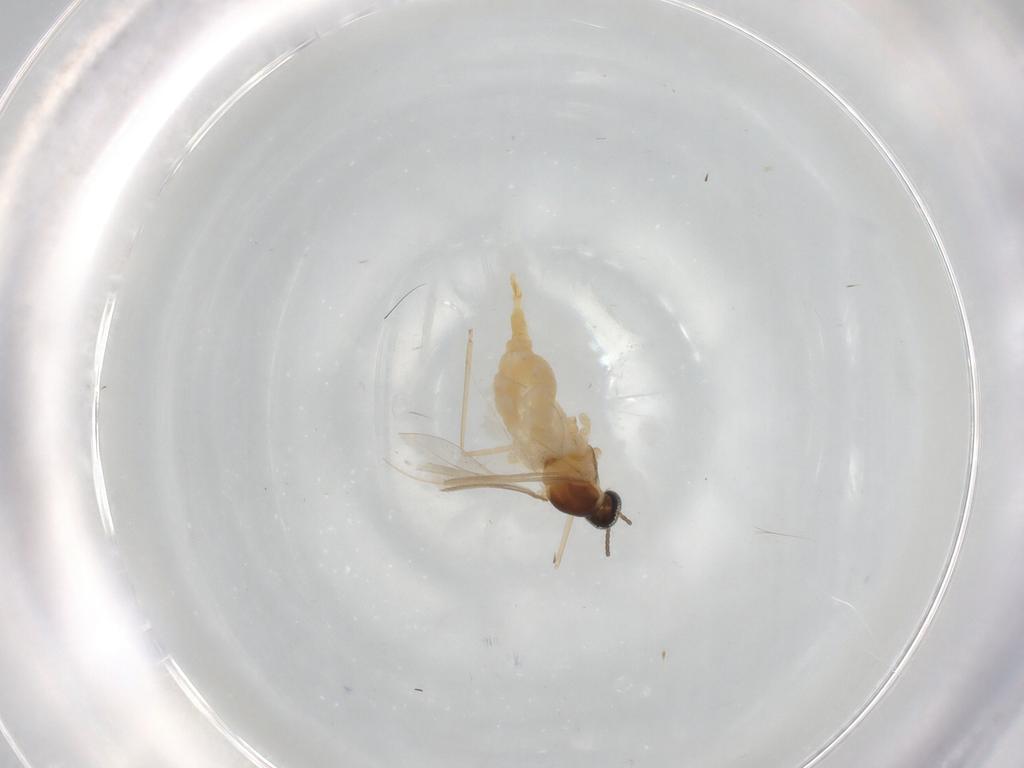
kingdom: Animalia
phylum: Arthropoda
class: Insecta
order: Diptera
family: Cecidomyiidae
